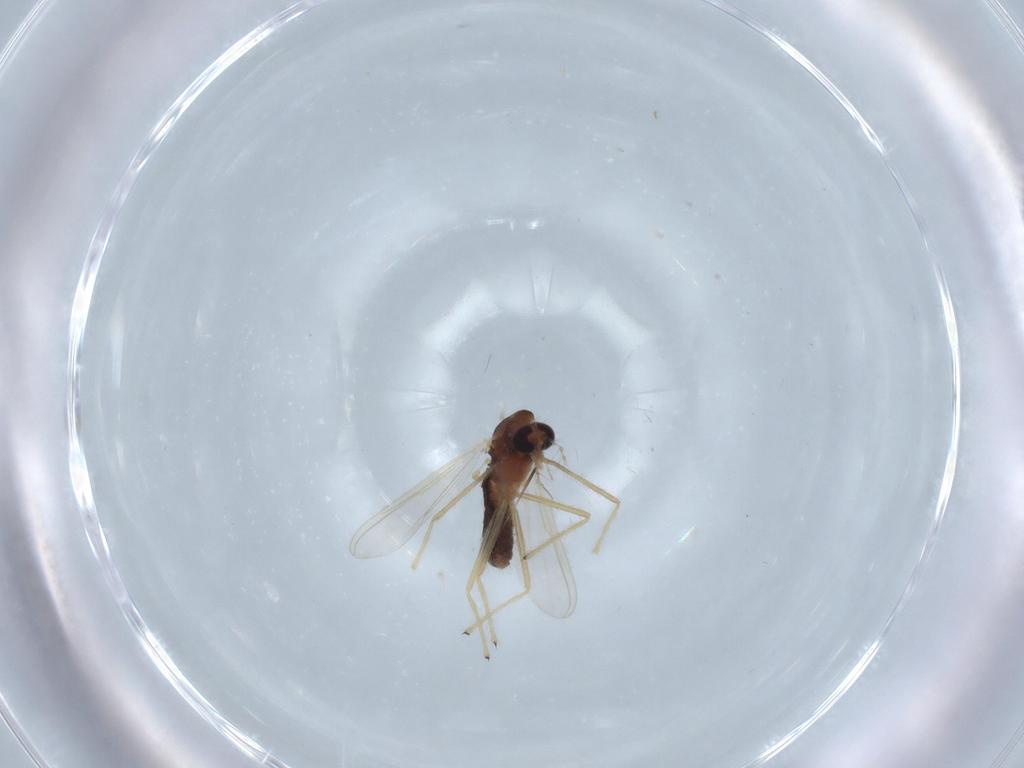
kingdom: Animalia
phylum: Arthropoda
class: Insecta
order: Diptera
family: Chironomidae
